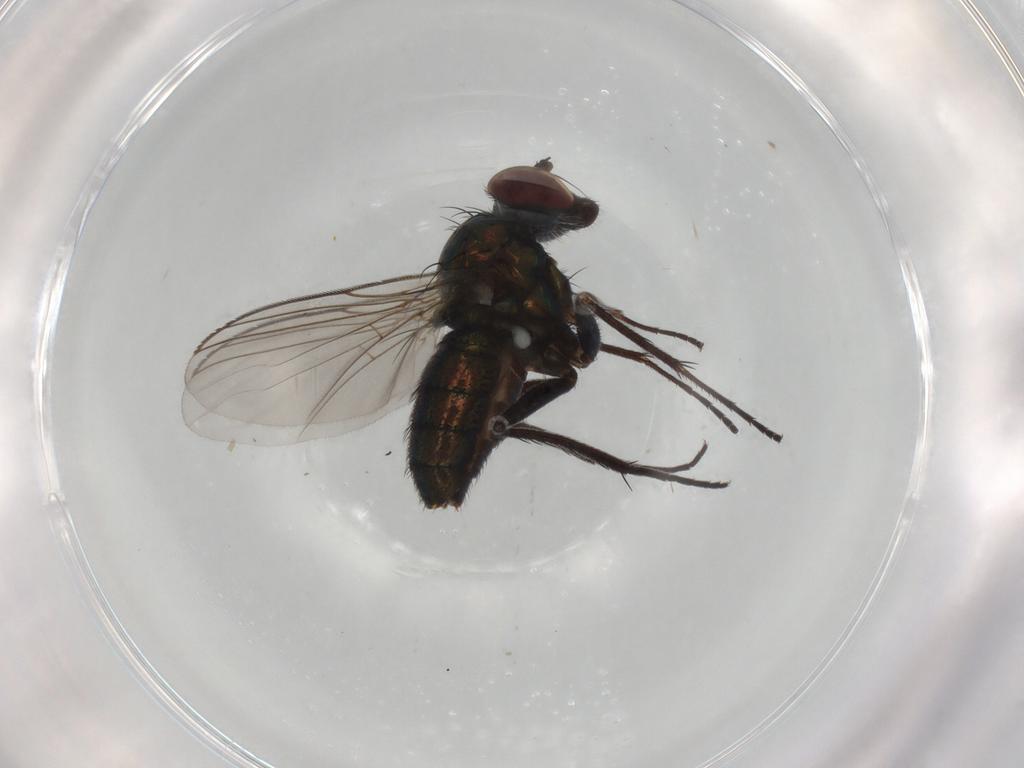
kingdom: Animalia
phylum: Arthropoda
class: Insecta
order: Diptera
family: Dolichopodidae
